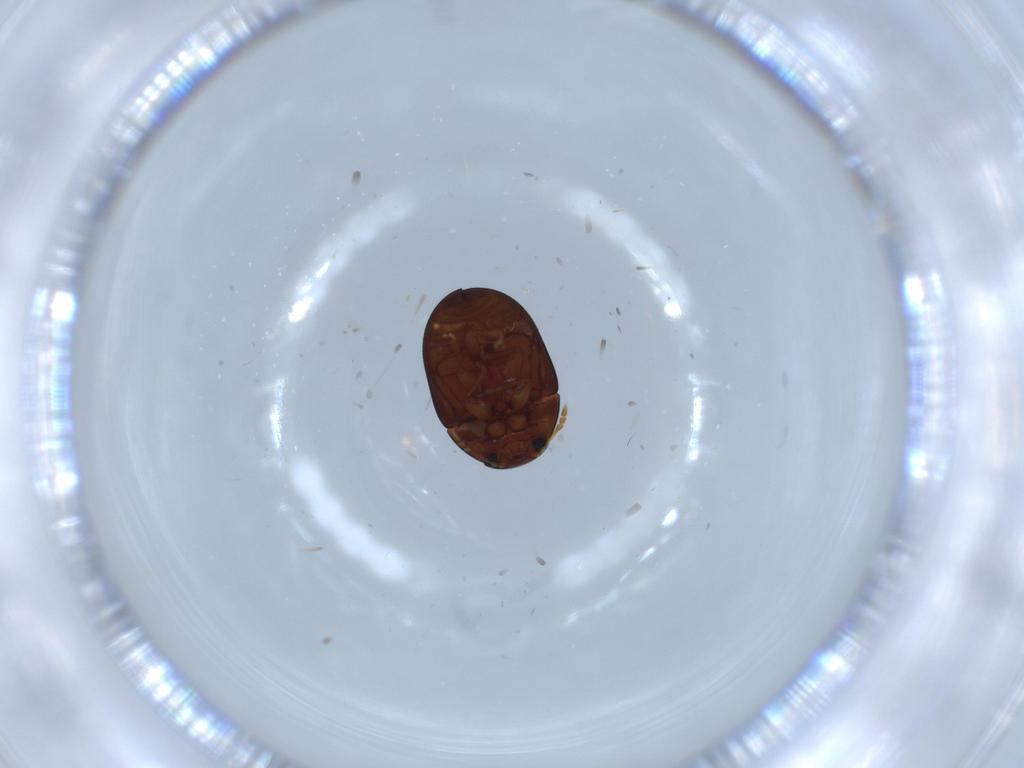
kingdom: Animalia
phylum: Arthropoda
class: Insecta
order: Coleoptera
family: Phalacridae
